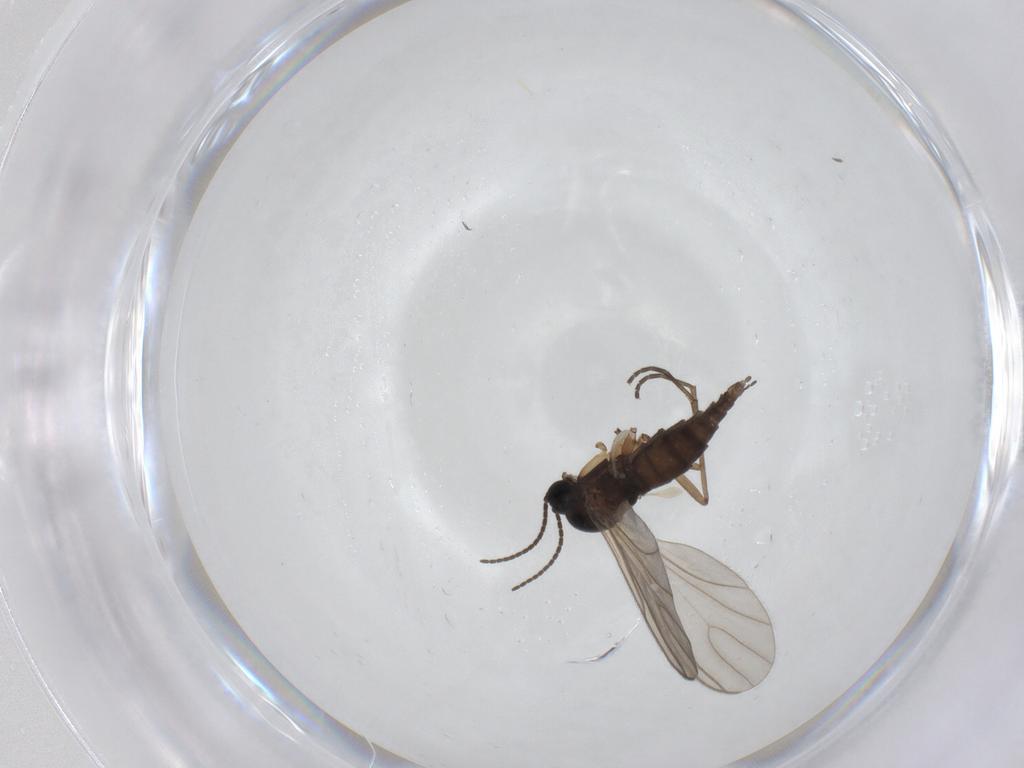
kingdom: Animalia
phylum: Arthropoda
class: Insecta
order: Diptera
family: Sciaridae
